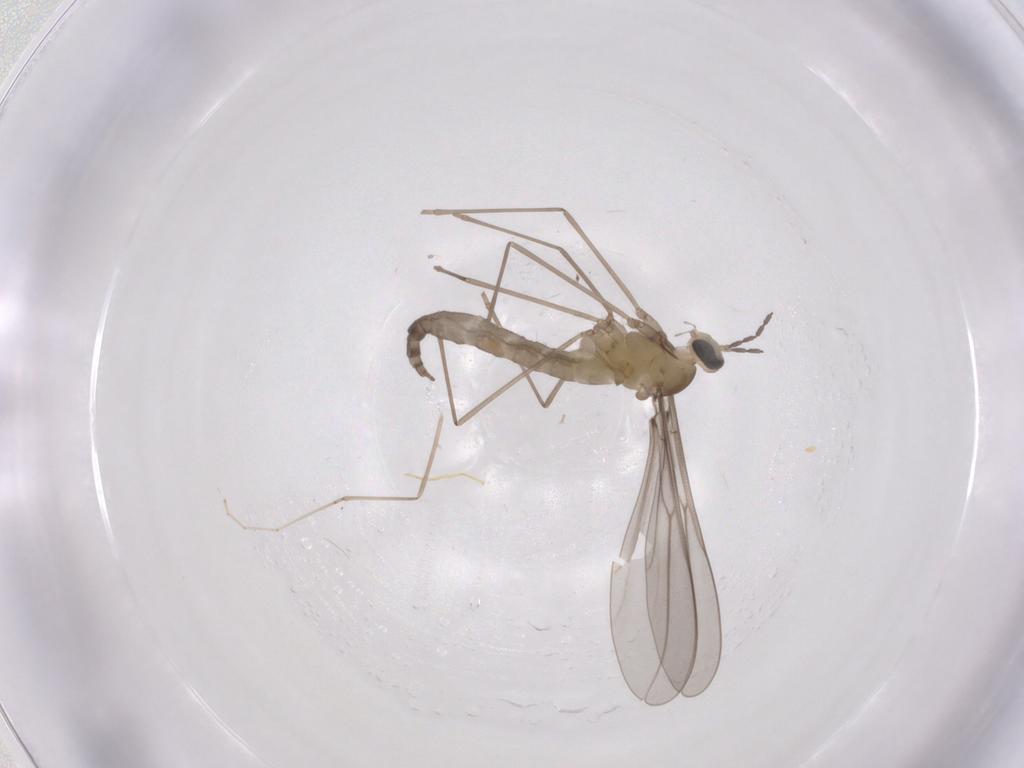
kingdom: Animalia
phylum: Arthropoda
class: Insecta
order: Diptera
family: Cecidomyiidae
